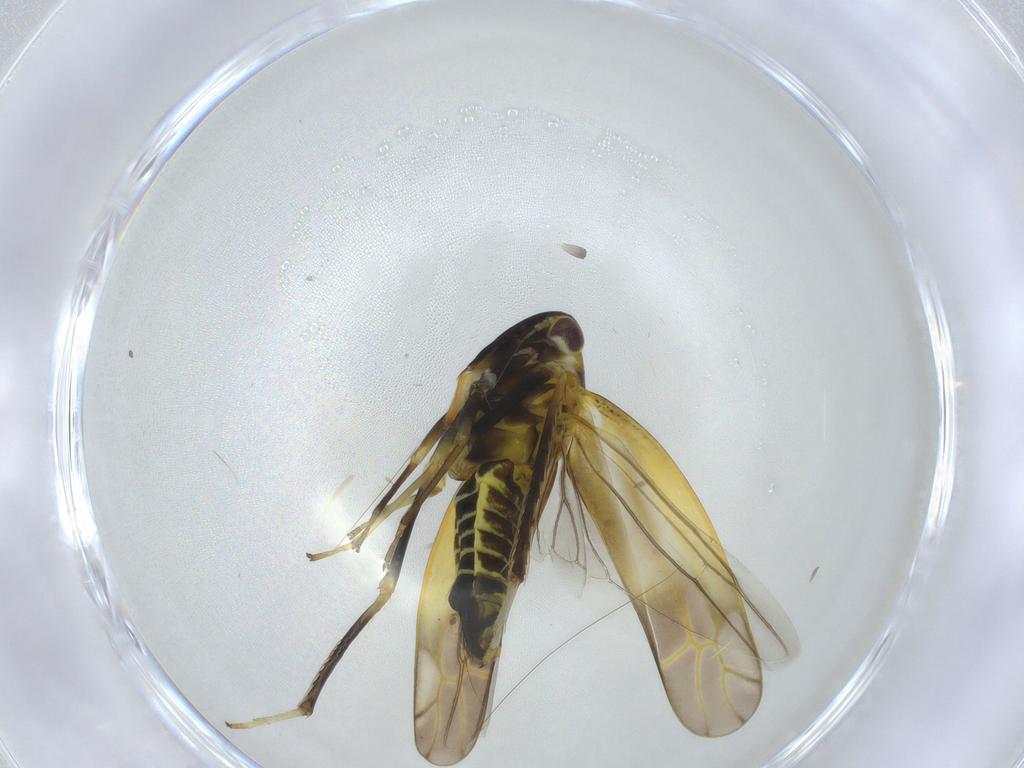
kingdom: Animalia
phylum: Arthropoda
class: Insecta
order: Hemiptera
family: Cicadellidae
